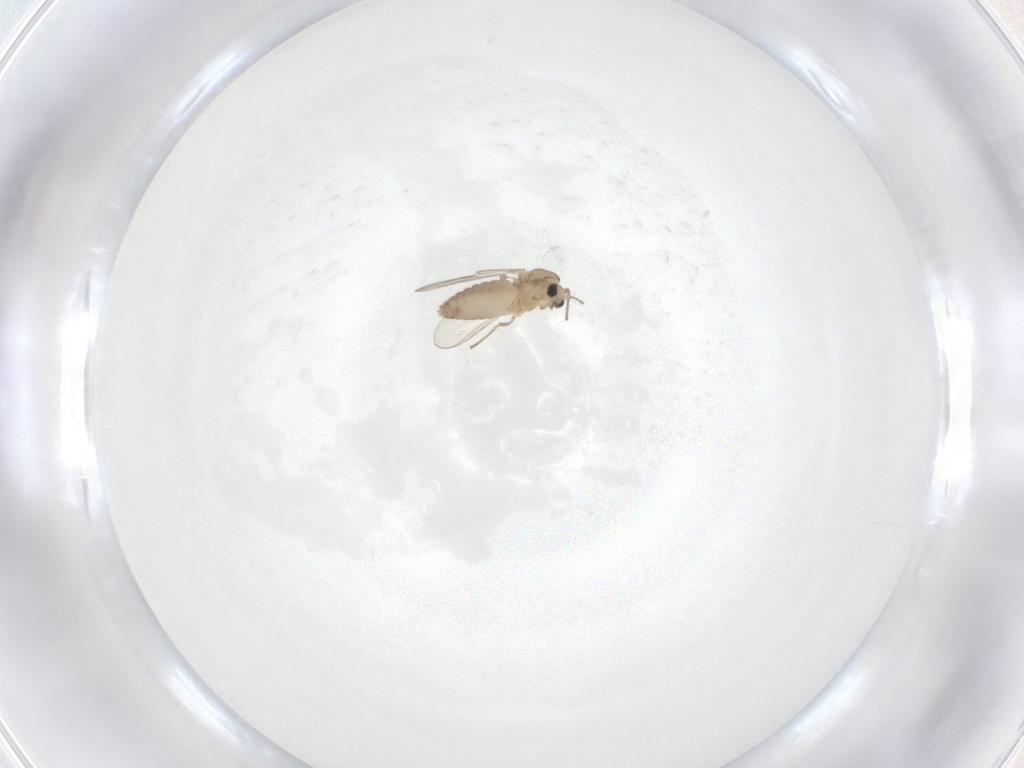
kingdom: Animalia
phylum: Arthropoda
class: Insecta
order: Diptera
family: Chironomidae
